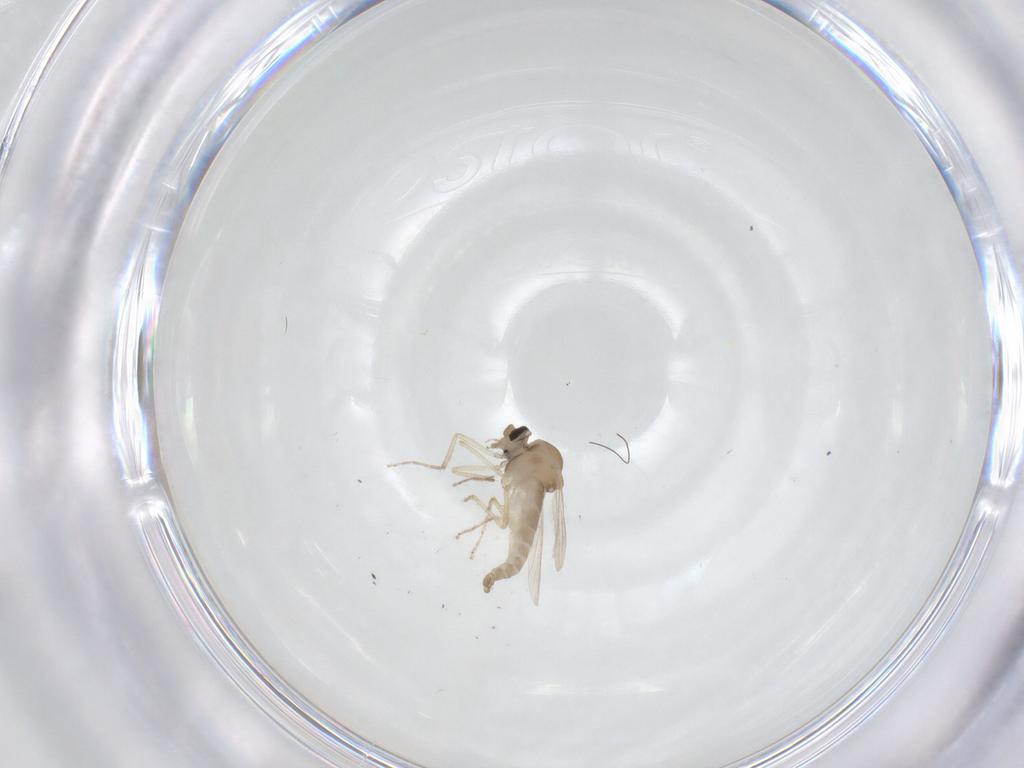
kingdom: Animalia
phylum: Arthropoda
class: Insecta
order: Diptera
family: Ceratopogonidae
